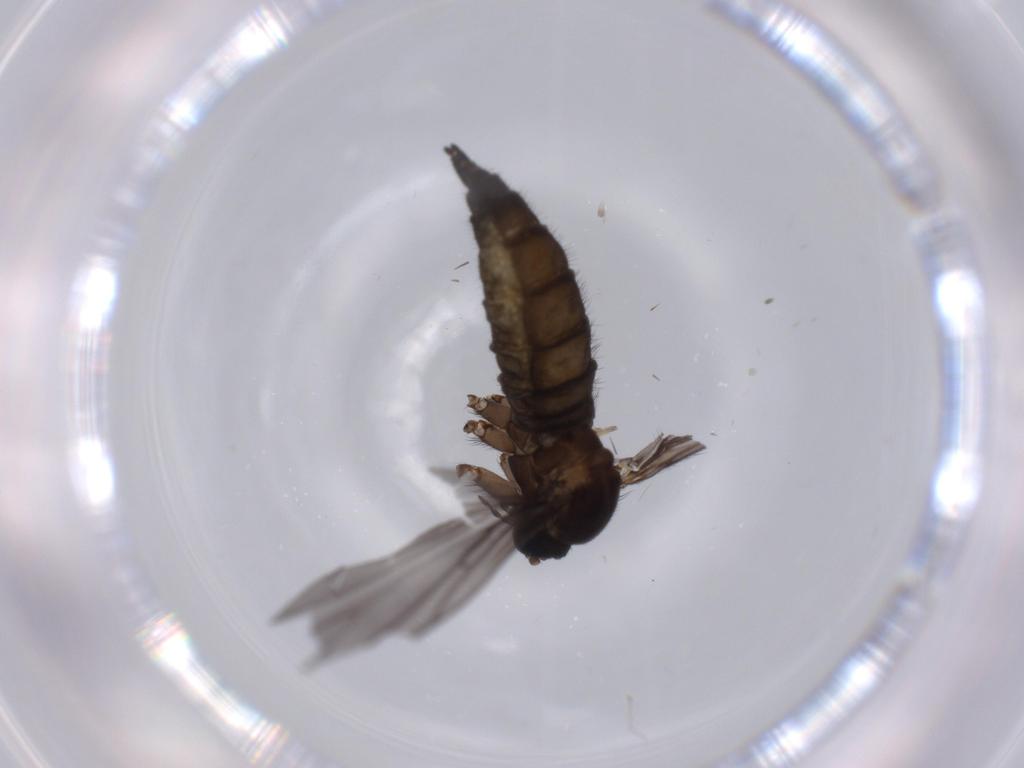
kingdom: Animalia
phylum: Arthropoda
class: Insecta
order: Diptera
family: Sciaridae
